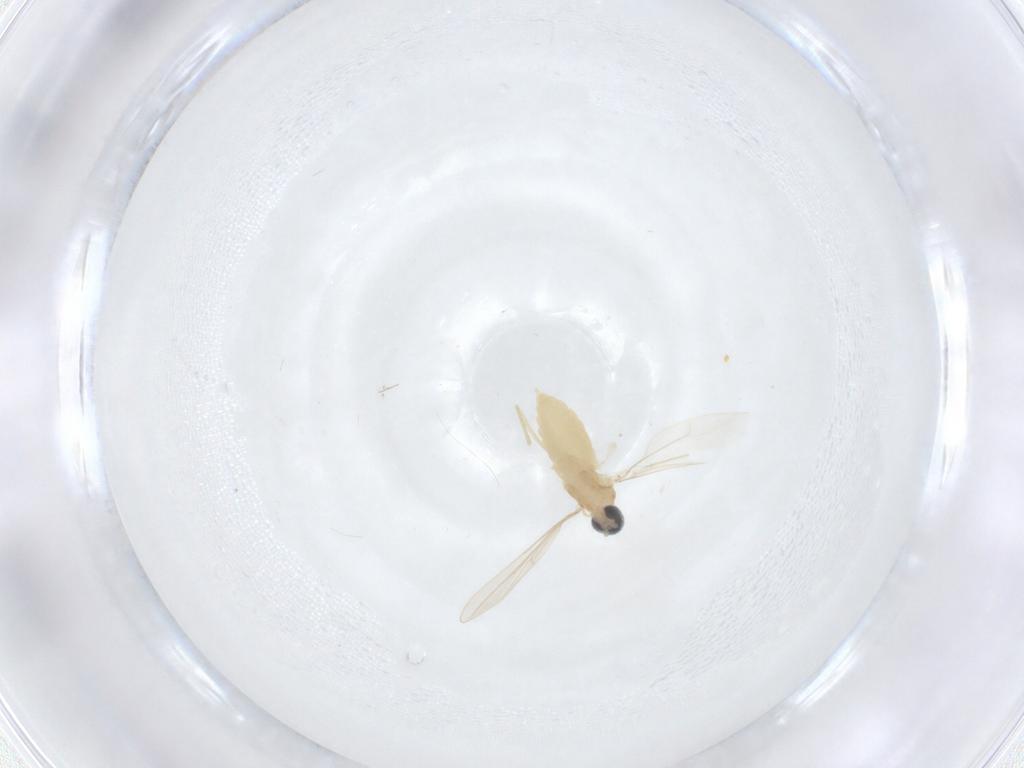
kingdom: Animalia
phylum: Arthropoda
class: Insecta
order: Diptera
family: Cecidomyiidae
